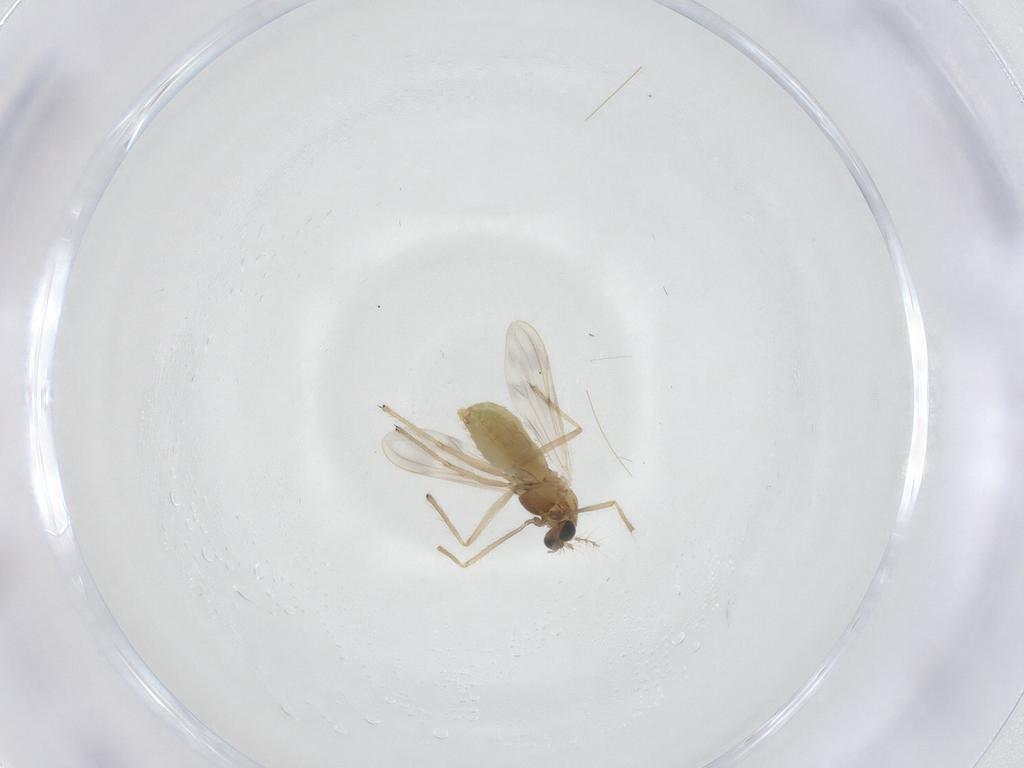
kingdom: Animalia
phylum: Arthropoda
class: Insecta
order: Diptera
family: Chironomidae
